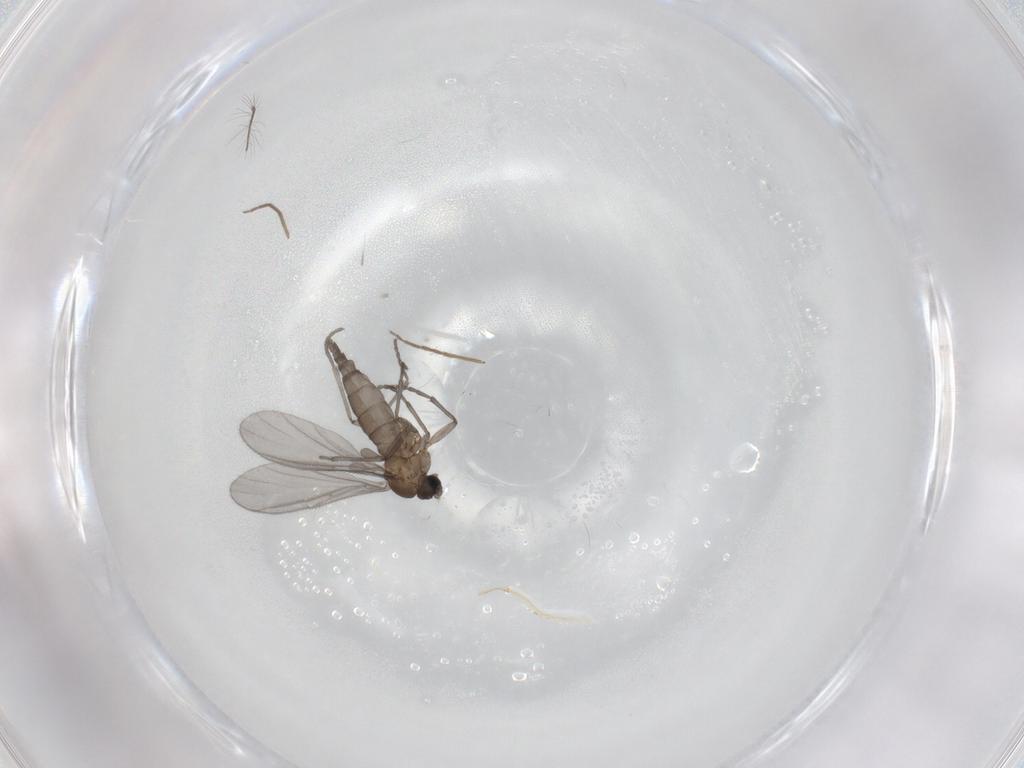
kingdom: Animalia
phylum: Arthropoda
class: Insecta
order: Diptera
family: Sciaridae
